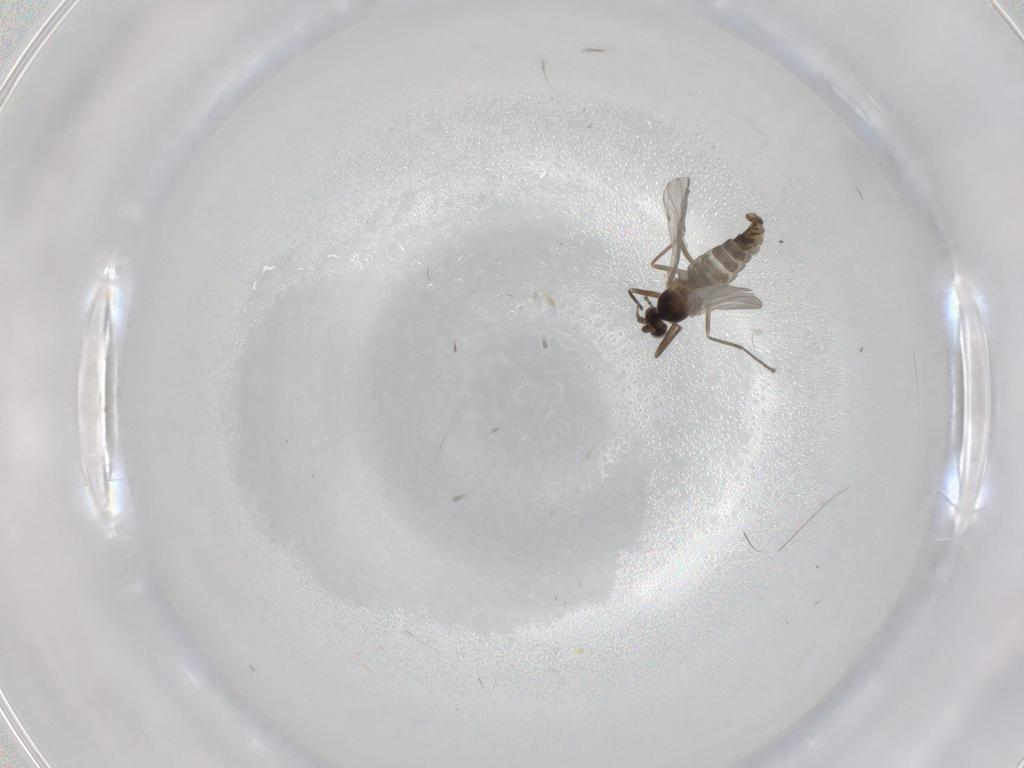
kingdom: Animalia
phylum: Arthropoda
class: Insecta
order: Diptera
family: Cecidomyiidae
